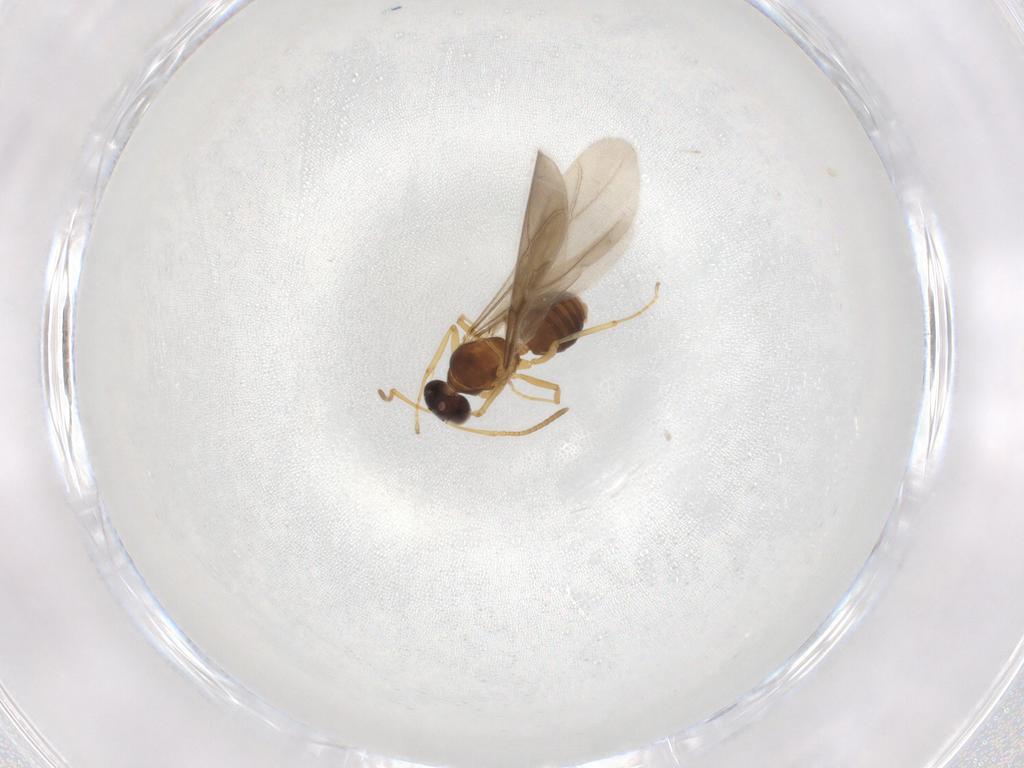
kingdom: Animalia
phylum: Arthropoda
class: Insecta
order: Hymenoptera
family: Formicidae
